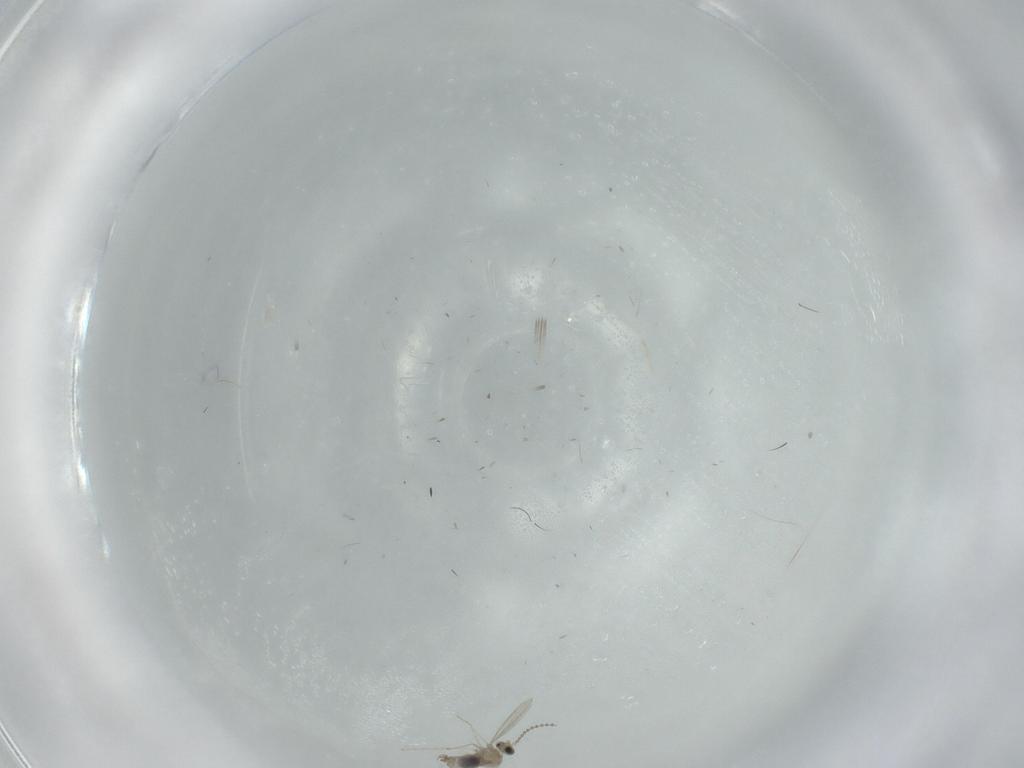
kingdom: Animalia
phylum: Arthropoda
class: Insecta
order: Diptera
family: Cecidomyiidae
